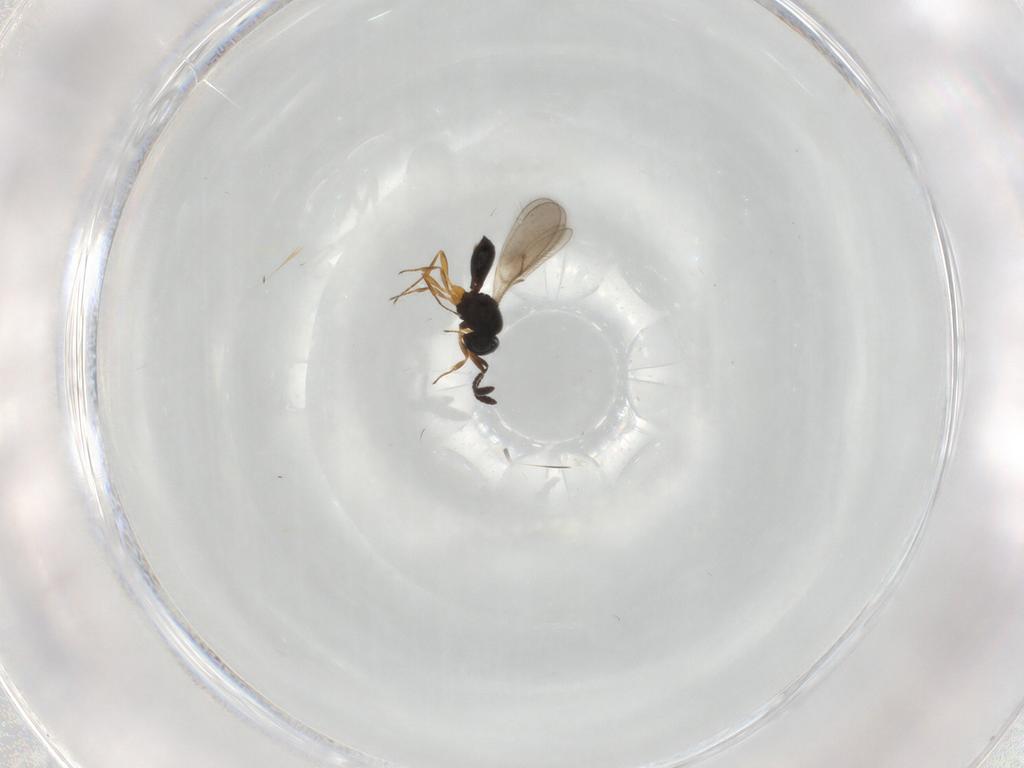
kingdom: Animalia
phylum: Arthropoda
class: Insecta
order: Hymenoptera
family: Scelionidae
